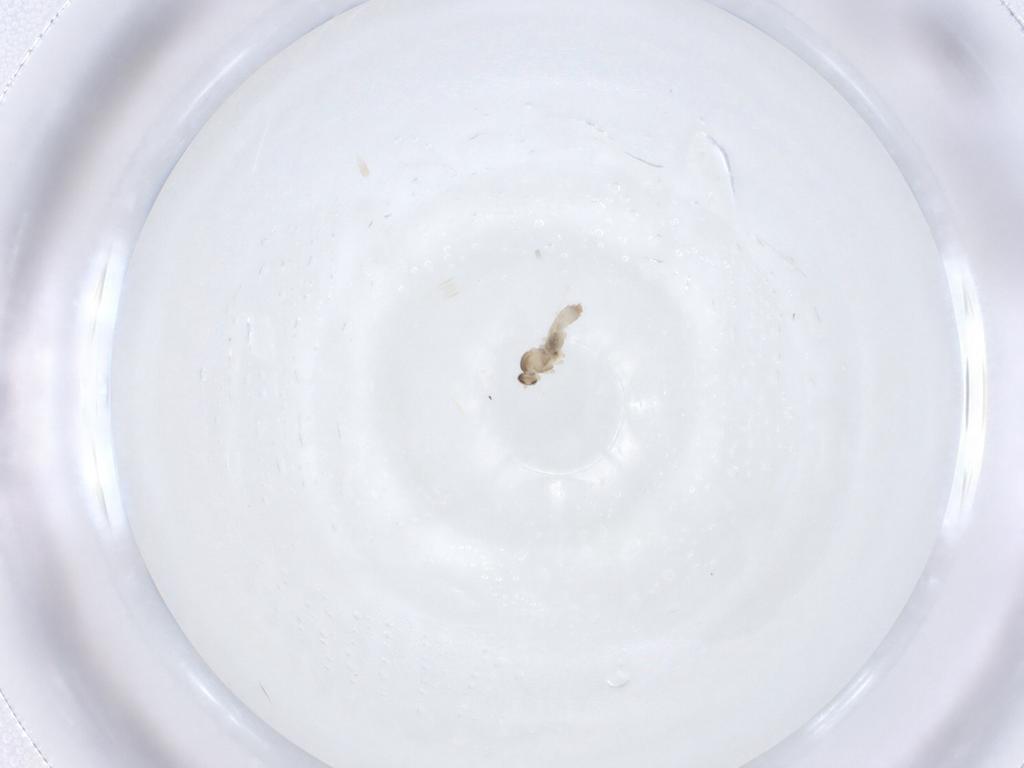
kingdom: Animalia
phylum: Arthropoda
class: Insecta
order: Diptera
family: Cecidomyiidae
